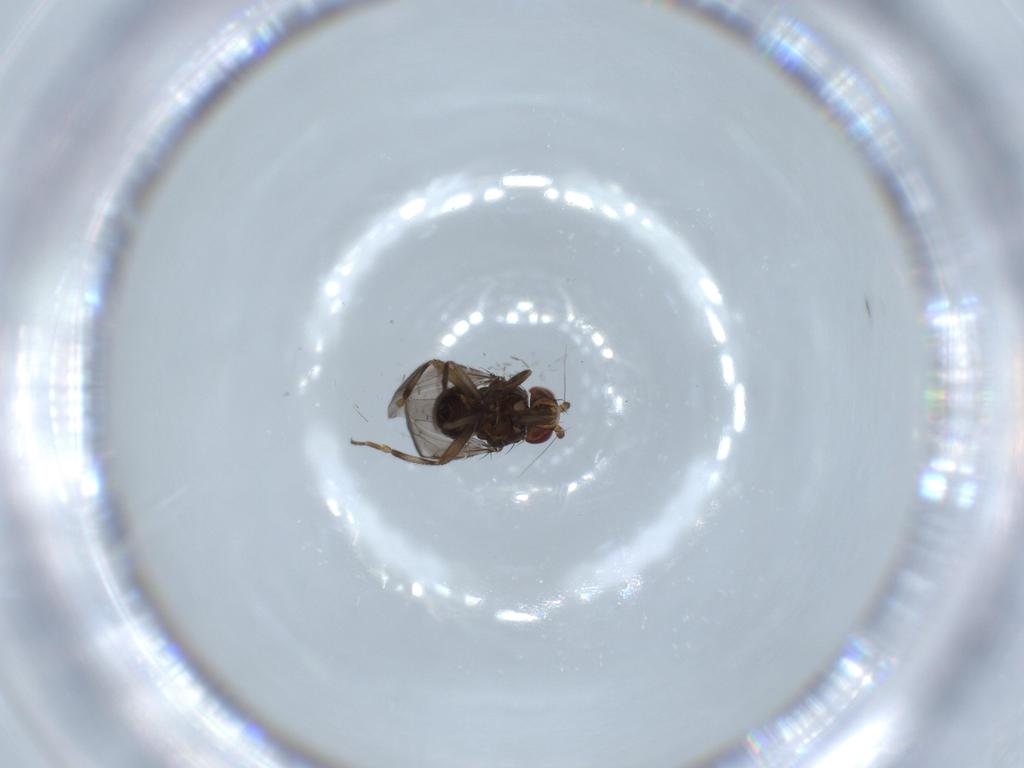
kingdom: Animalia
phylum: Arthropoda
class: Insecta
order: Diptera
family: Sphaeroceridae
